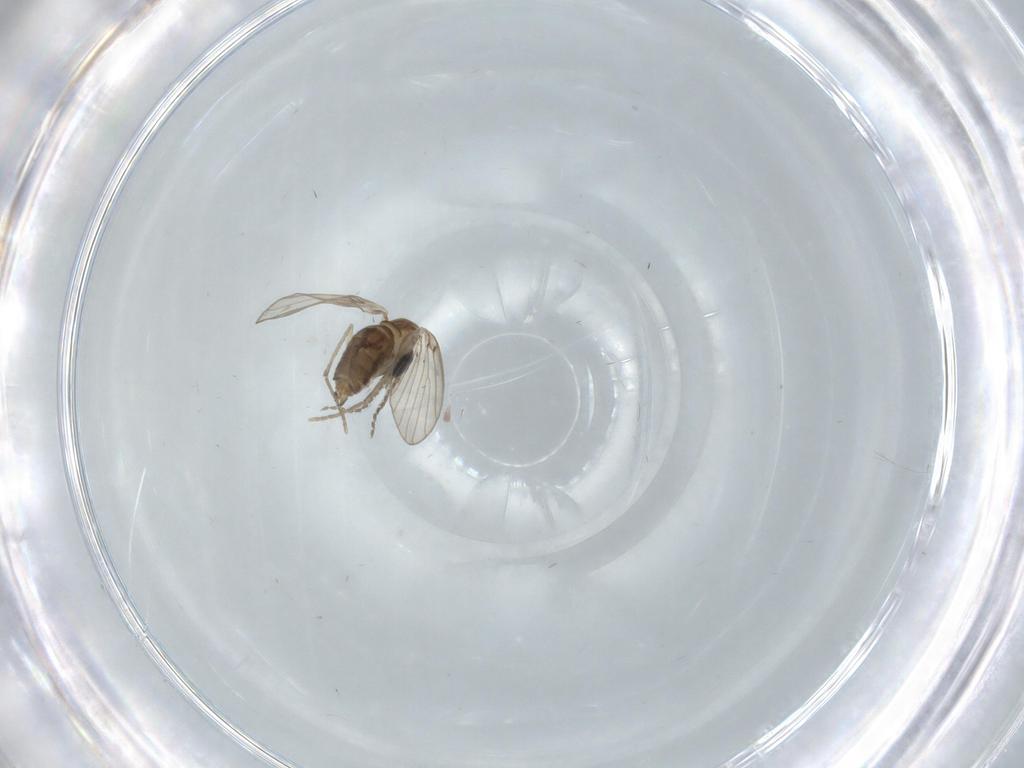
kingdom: Animalia
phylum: Arthropoda
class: Insecta
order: Diptera
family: Psychodidae
